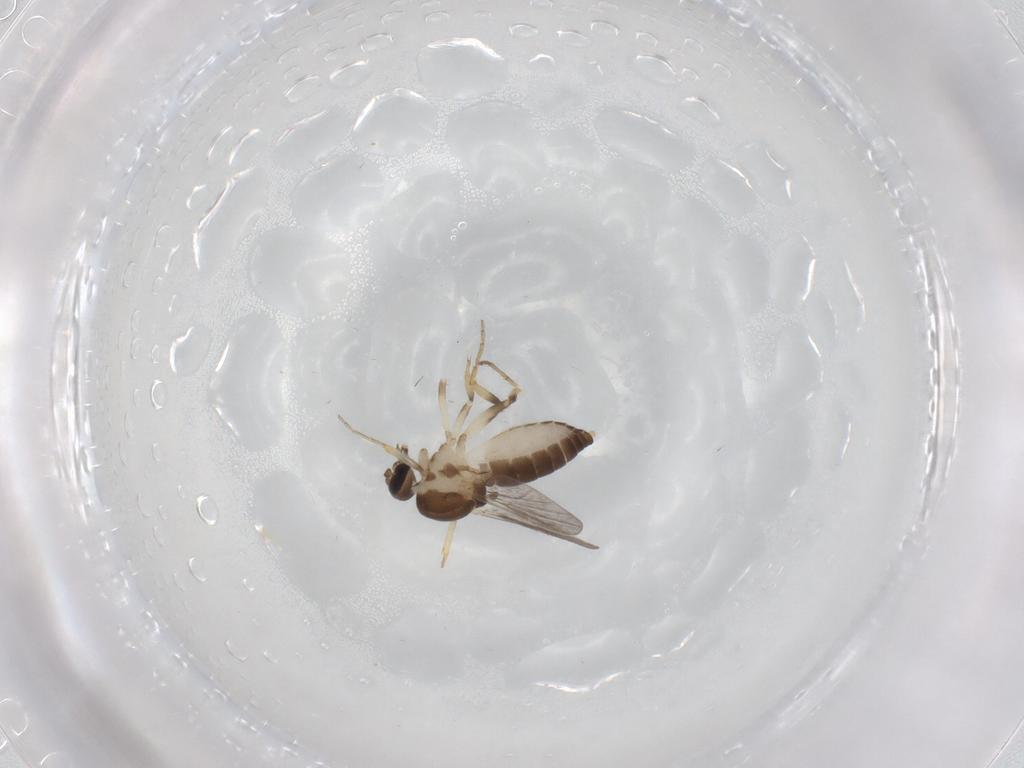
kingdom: Animalia
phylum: Arthropoda
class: Insecta
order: Diptera
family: Ceratopogonidae
